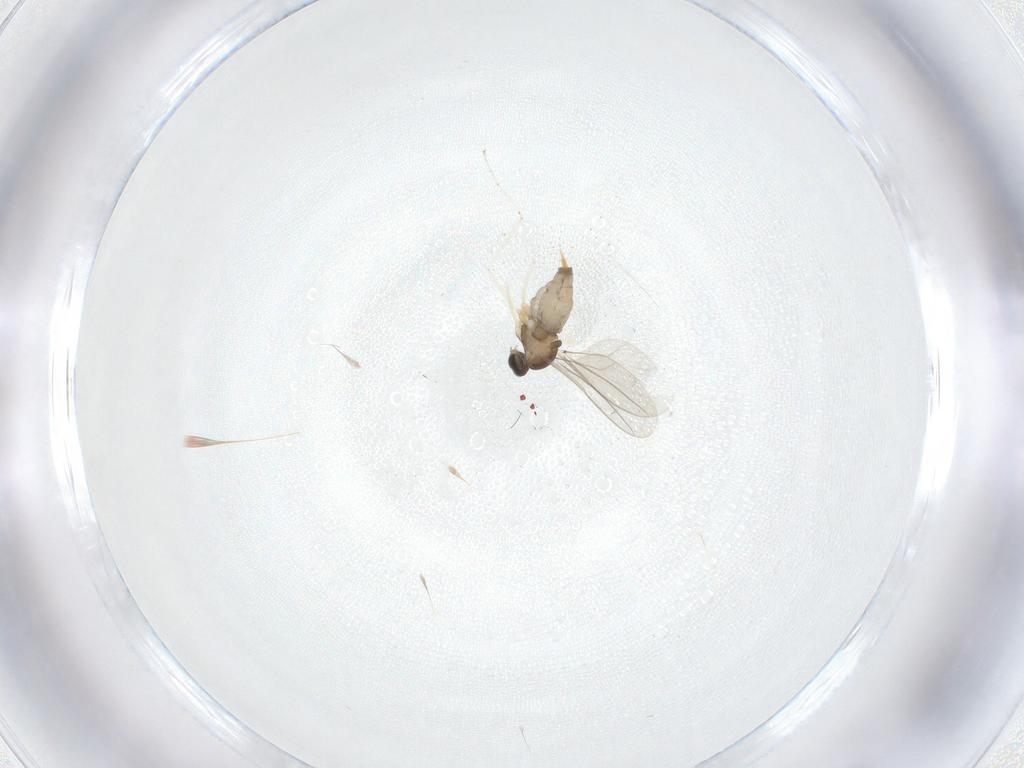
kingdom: Animalia
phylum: Arthropoda
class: Insecta
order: Diptera
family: Cecidomyiidae
